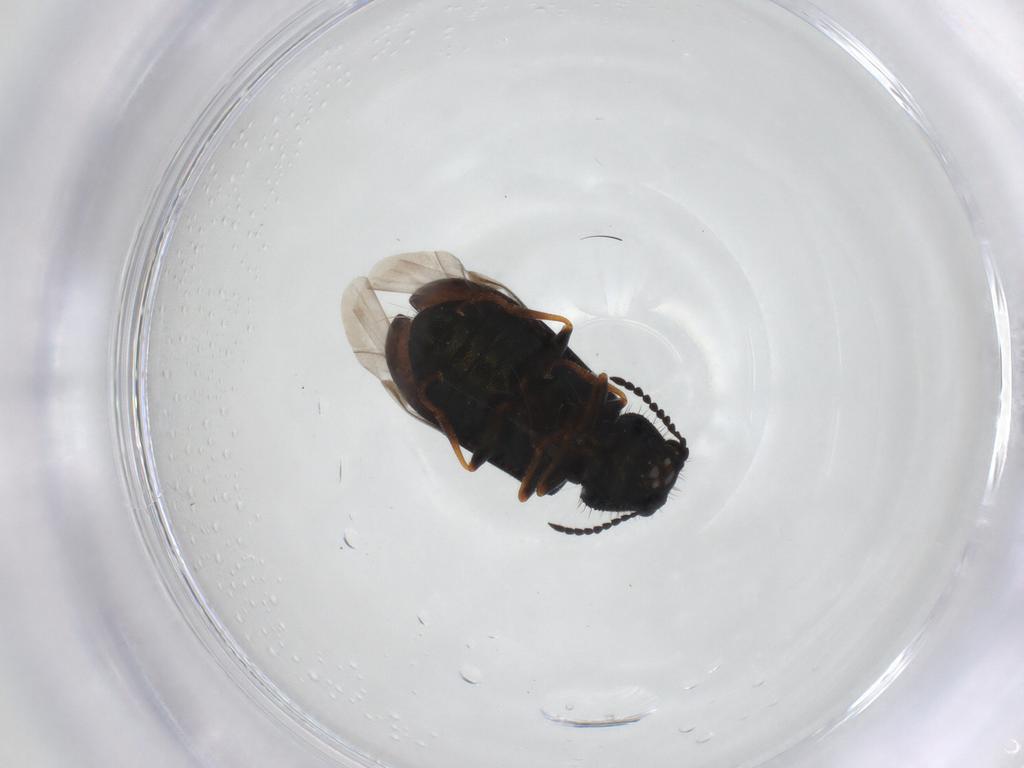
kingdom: Animalia
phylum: Arthropoda
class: Insecta
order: Coleoptera
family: Melyridae
